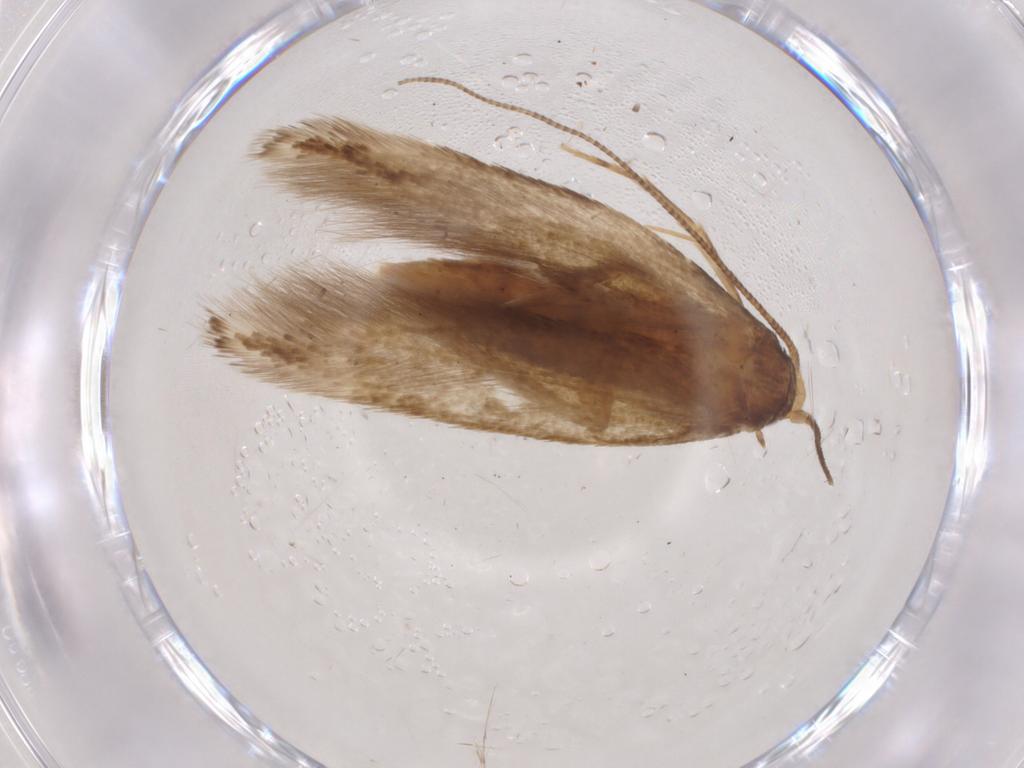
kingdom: Animalia
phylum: Arthropoda
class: Insecta
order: Lepidoptera
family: Tineidae
